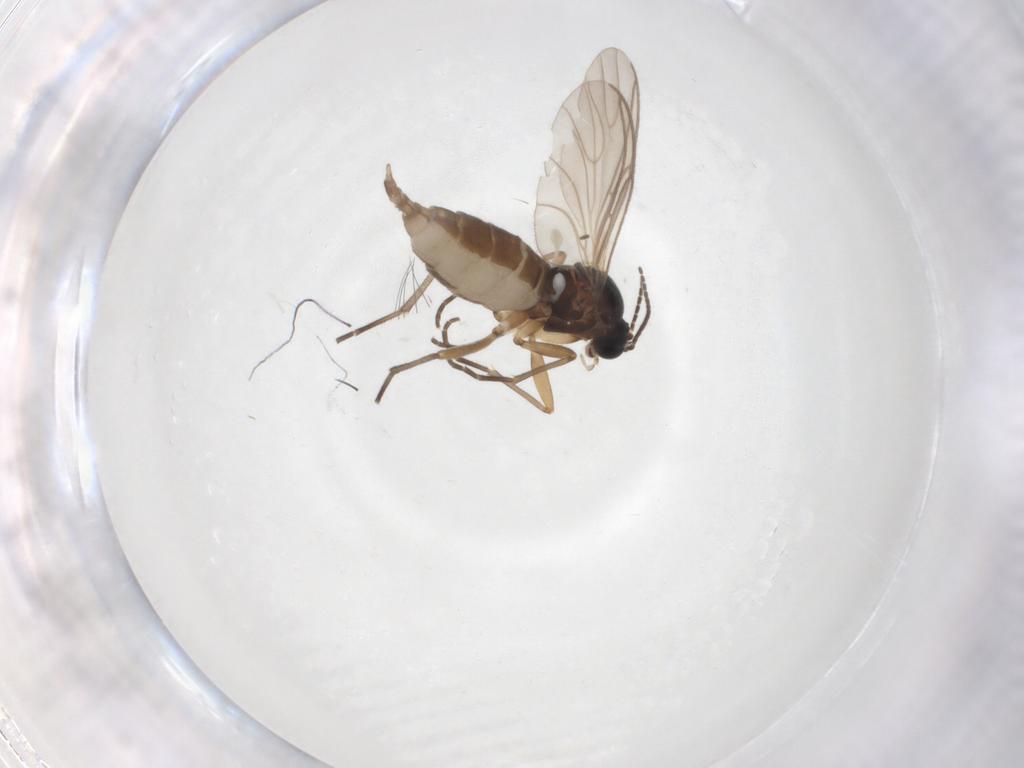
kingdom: Animalia
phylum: Arthropoda
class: Insecta
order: Diptera
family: Sciaridae
